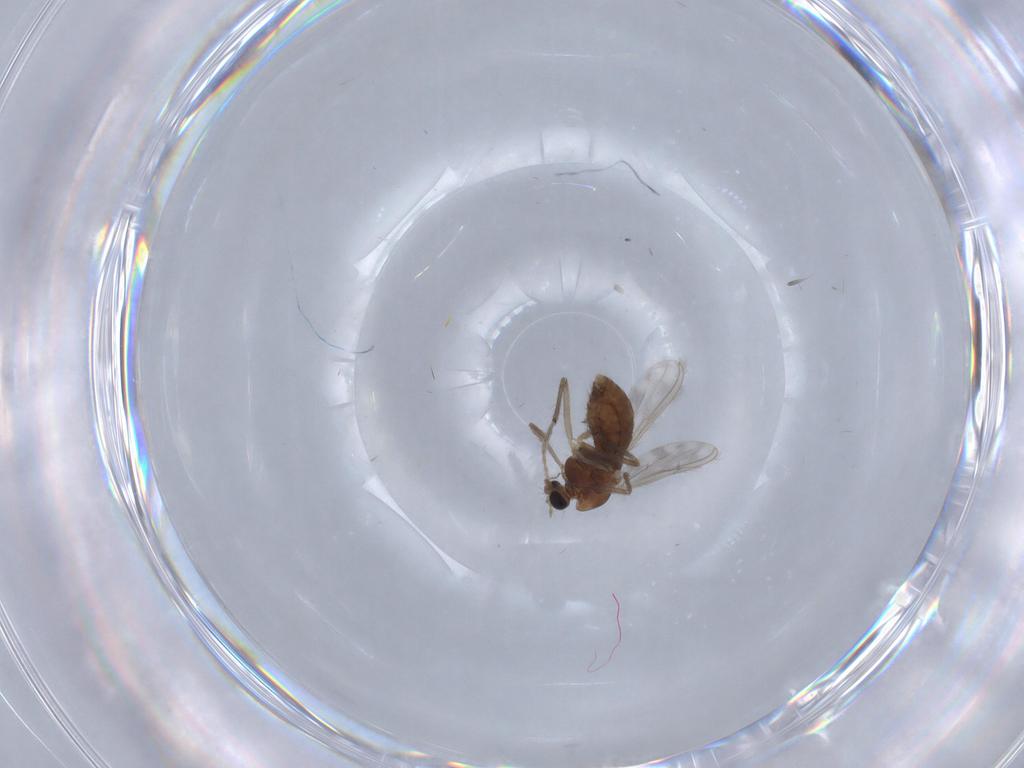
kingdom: Animalia
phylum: Arthropoda
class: Insecta
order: Diptera
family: Chironomidae
